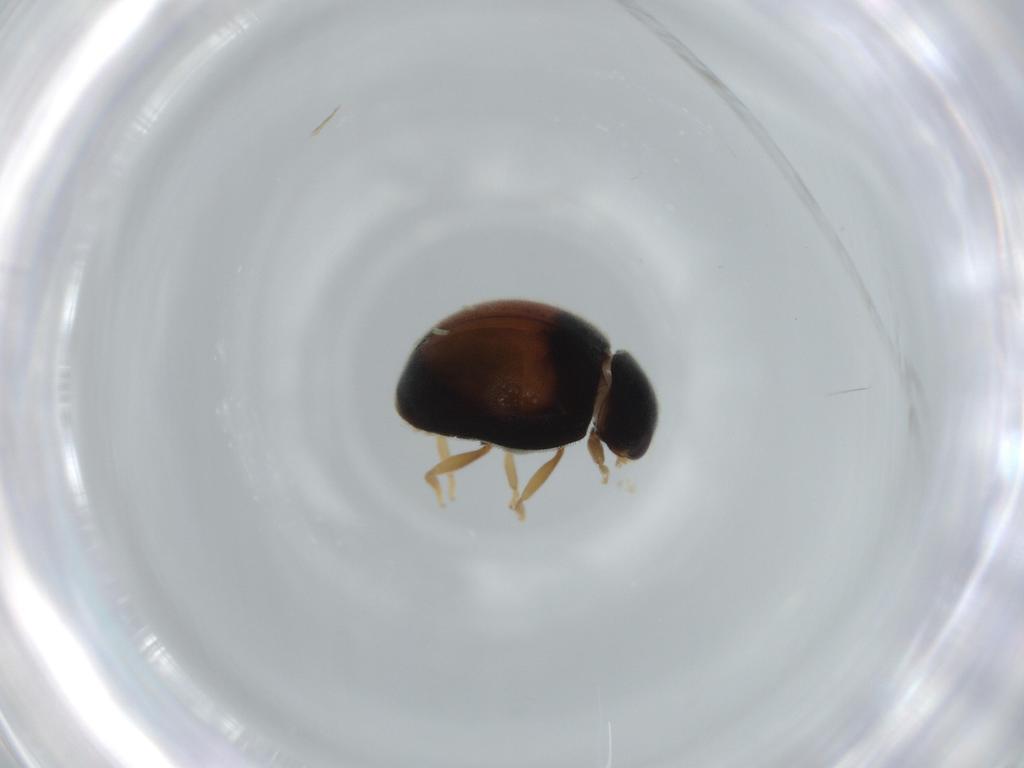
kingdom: Animalia
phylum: Arthropoda
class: Insecta
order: Coleoptera
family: Coccinellidae
